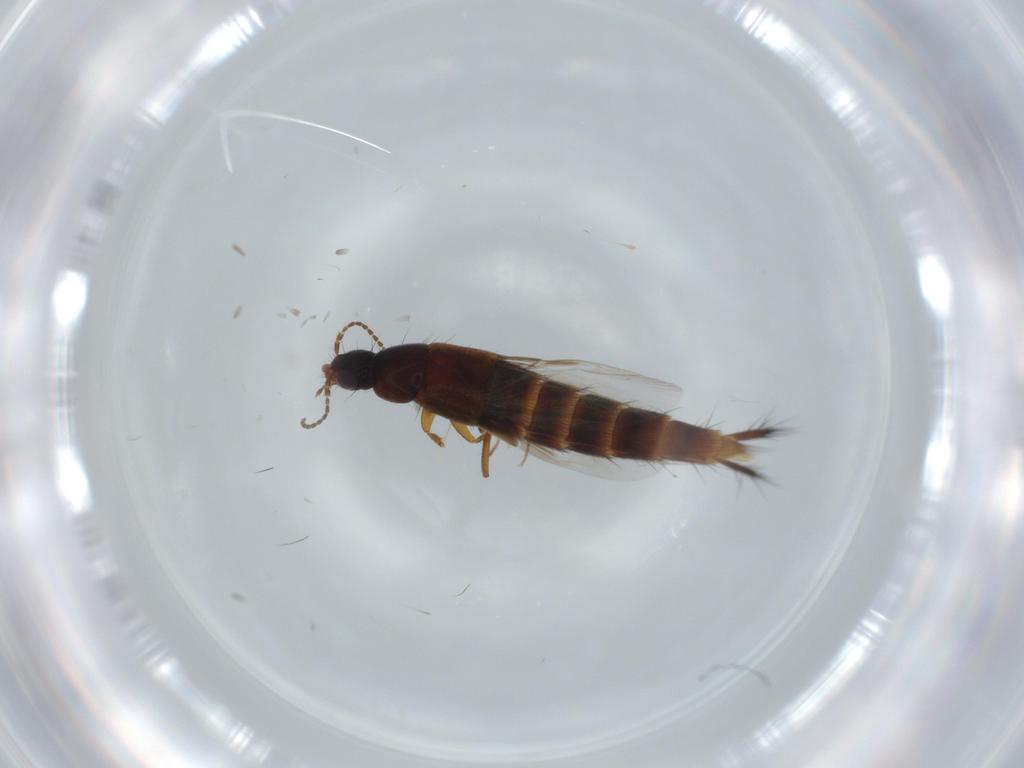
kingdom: Animalia
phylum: Arthropoda
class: Insecta
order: Coleoptera
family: Staphylinidae
